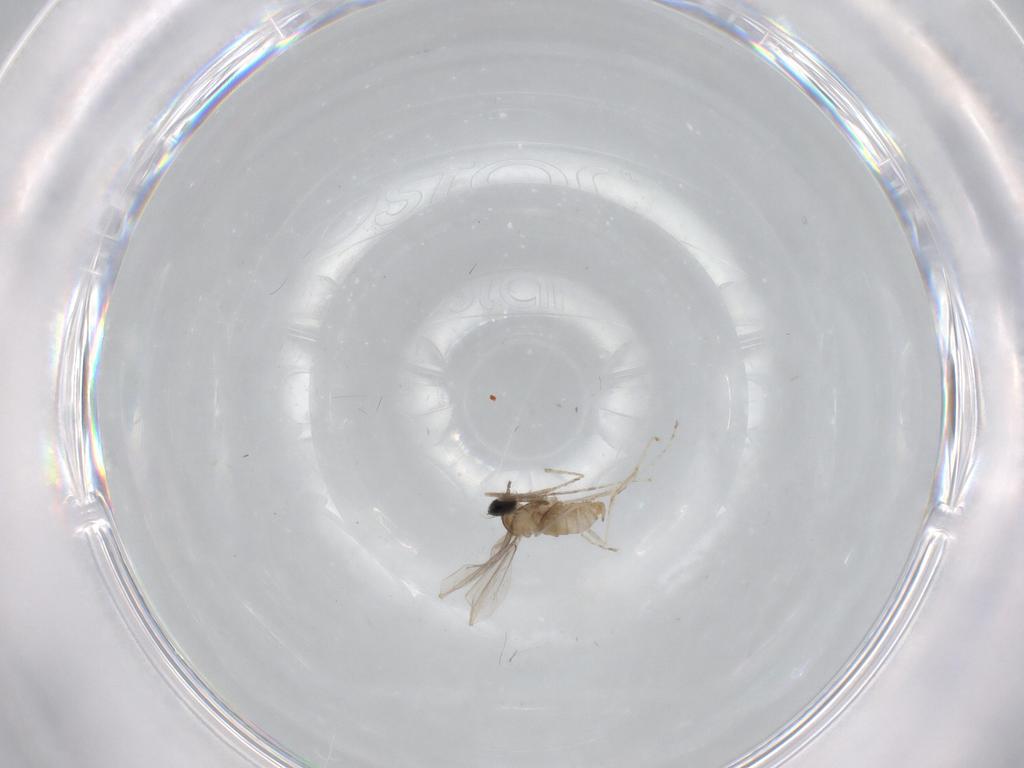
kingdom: Animalia
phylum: Arthropoda
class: Insecta
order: Diptera
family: Cecidomyiidae
